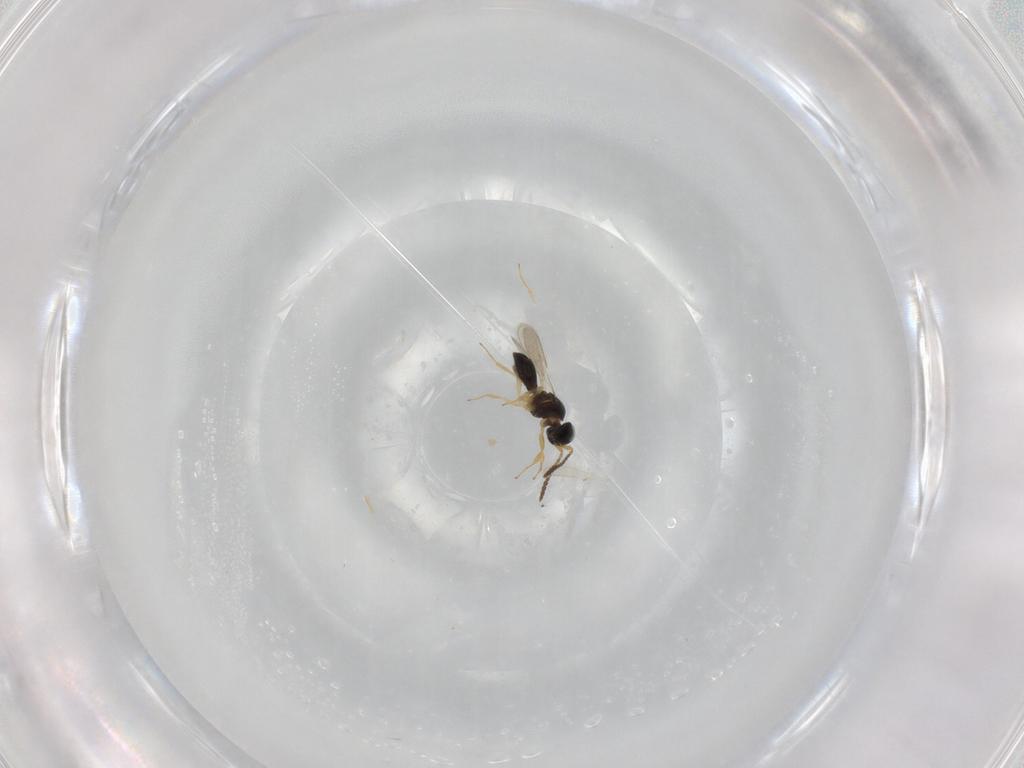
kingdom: Animalia
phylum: Arthropoda
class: Insecta
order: Hymenoptera
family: Scelionidae
